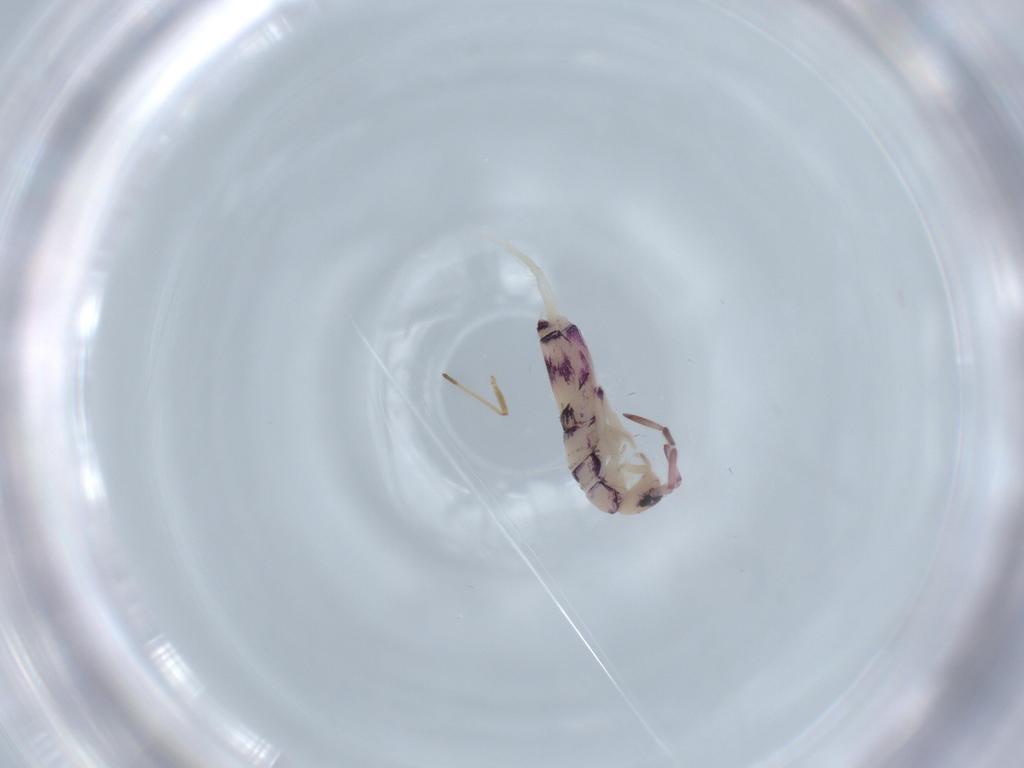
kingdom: Animalia
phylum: Arthropoda
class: Collembola
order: Entomobryomorpha
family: Entomobryidae
